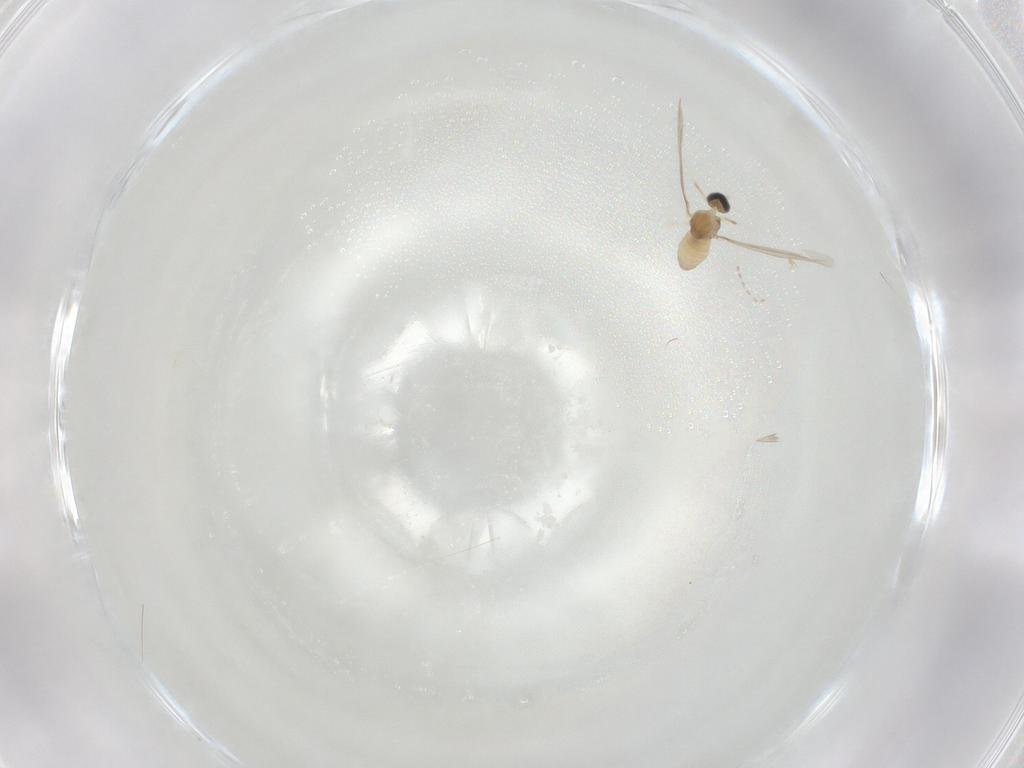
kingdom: Animalia
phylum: Arthropoda
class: Insecta
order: Diptera
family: Cecidomyiidae
